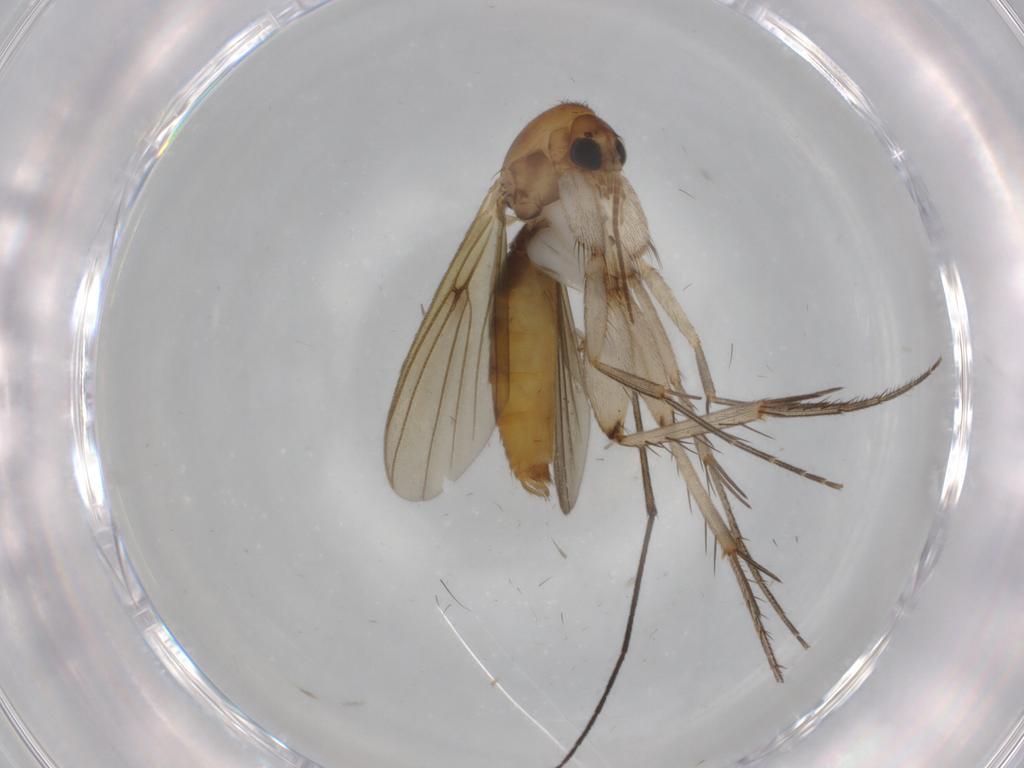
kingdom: Animalia
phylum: Arthropoda
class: Insecta
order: Diptera
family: Mycetophilidae
